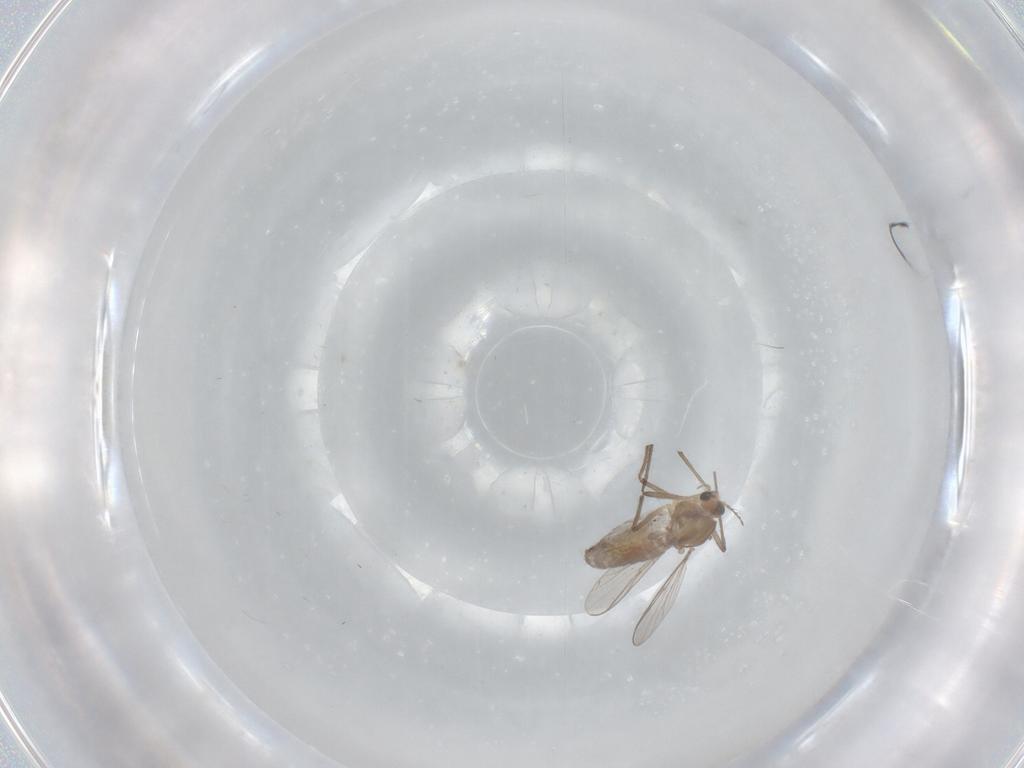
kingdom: Animalia
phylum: Arthropoda
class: Insecta
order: Diptera
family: Chironomidae
